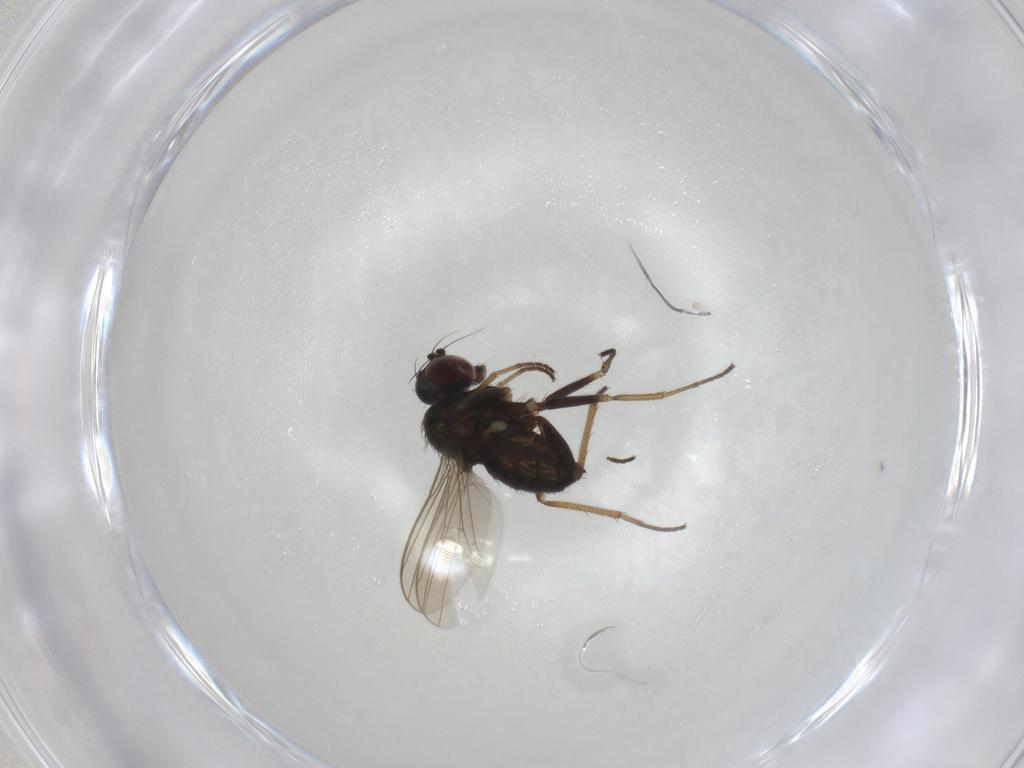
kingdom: Animalia
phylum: Arthropoda
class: Insecta
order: Diptera
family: Dolichopodidae
